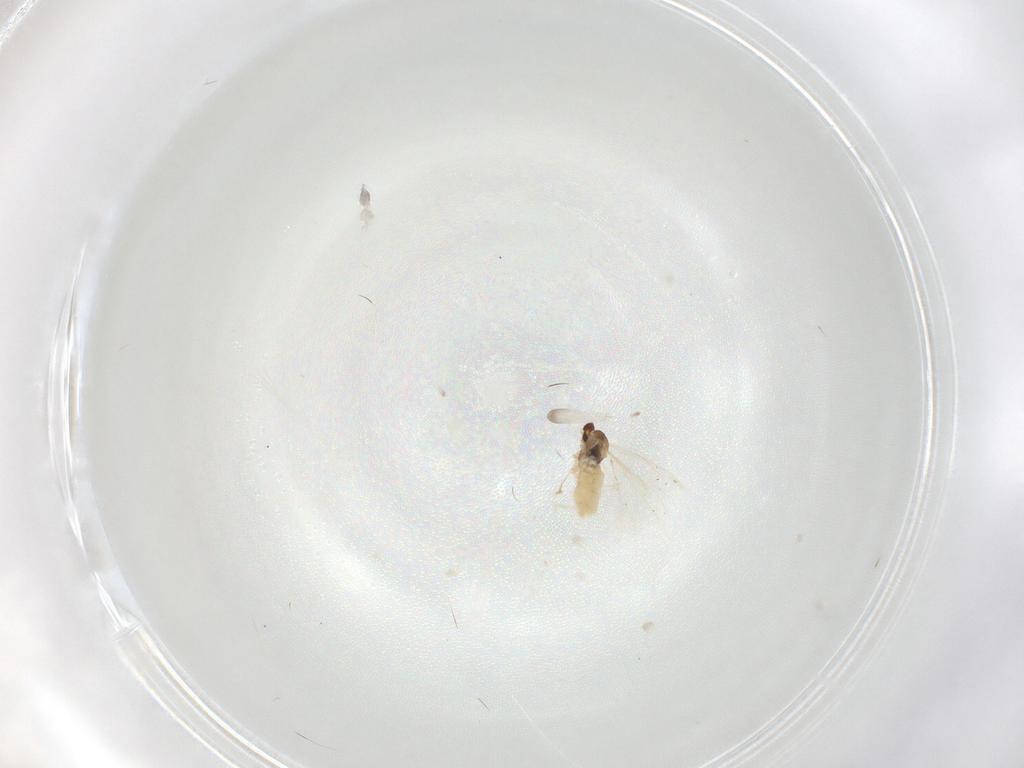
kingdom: Animalia
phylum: Arthropoda
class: Insecta
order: Diptera
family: Cecidomyiidae
